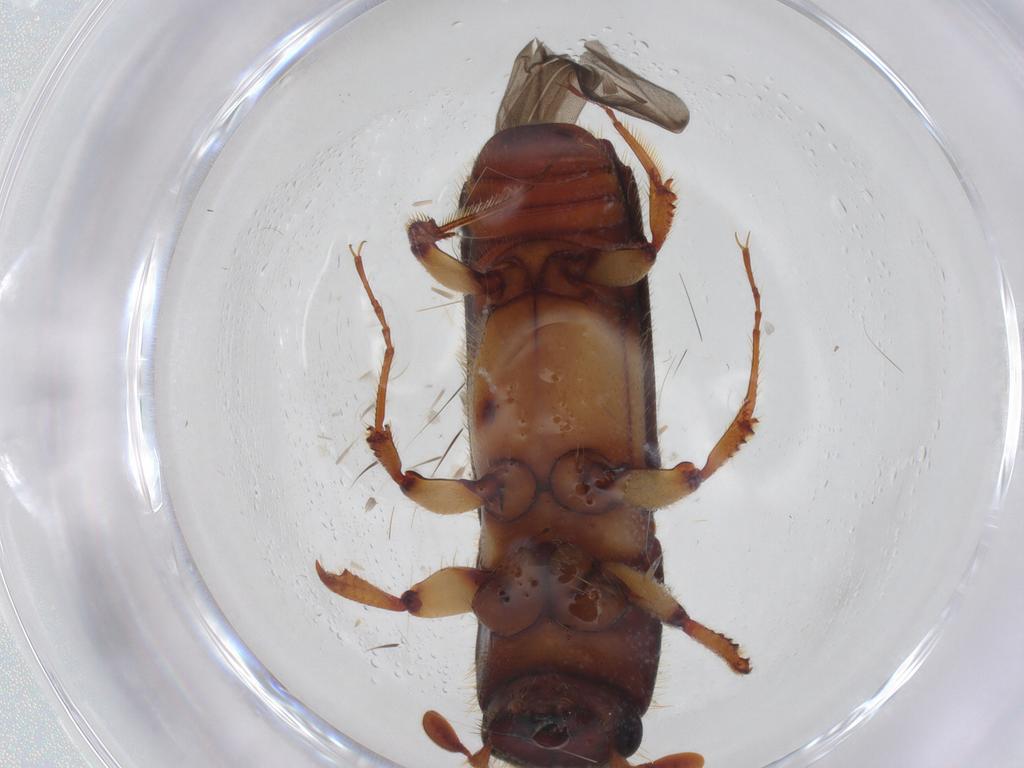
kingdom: Animalia
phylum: Arthropoda
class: Insecta
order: Coleoptera
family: Curculionidae
